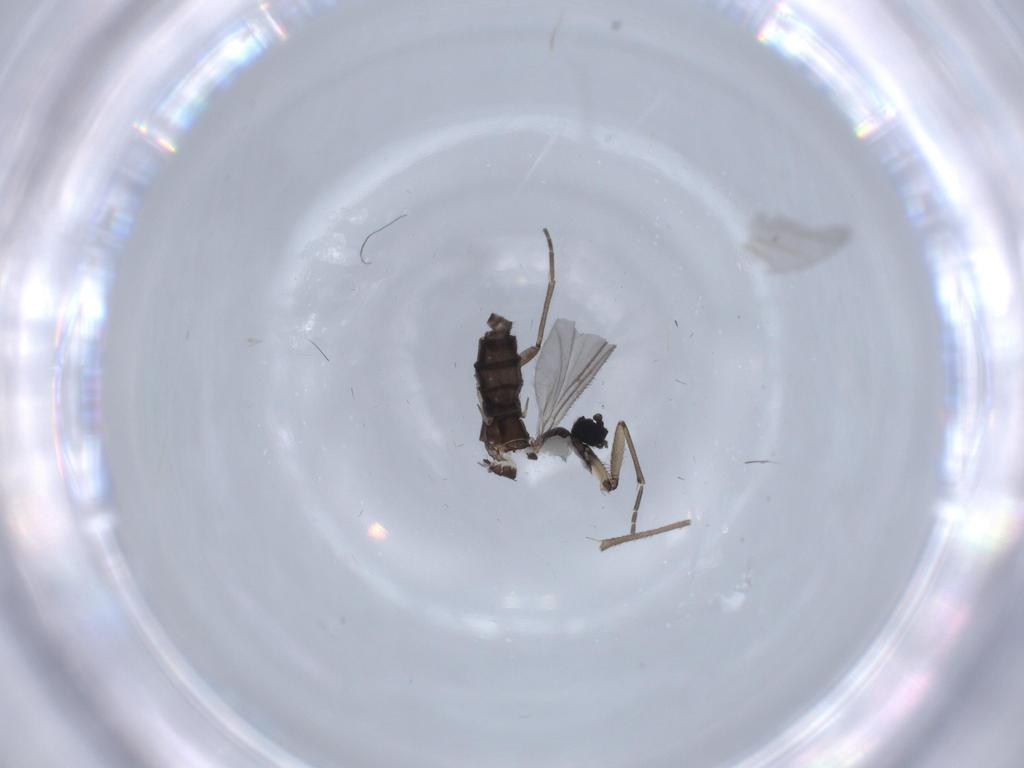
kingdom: Animalia
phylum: Arthropoda
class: Insecta
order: Diptera
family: Sciaridae
